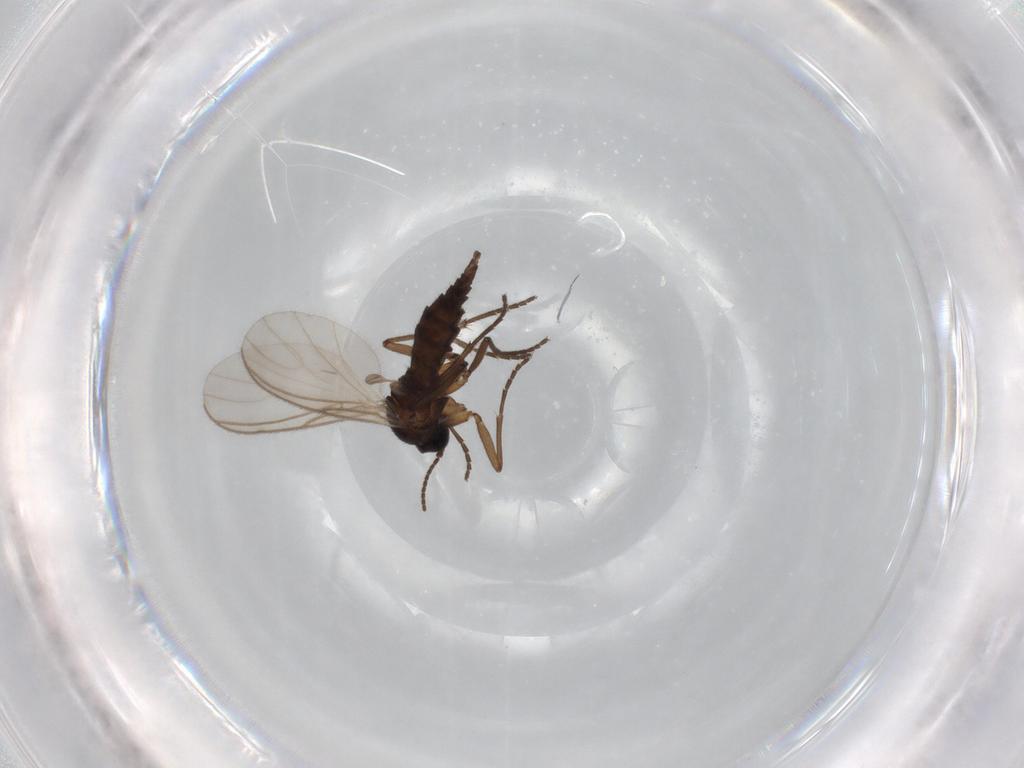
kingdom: Animalia
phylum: Arthropoda
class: Insecta
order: Diptera
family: Sciaridae
